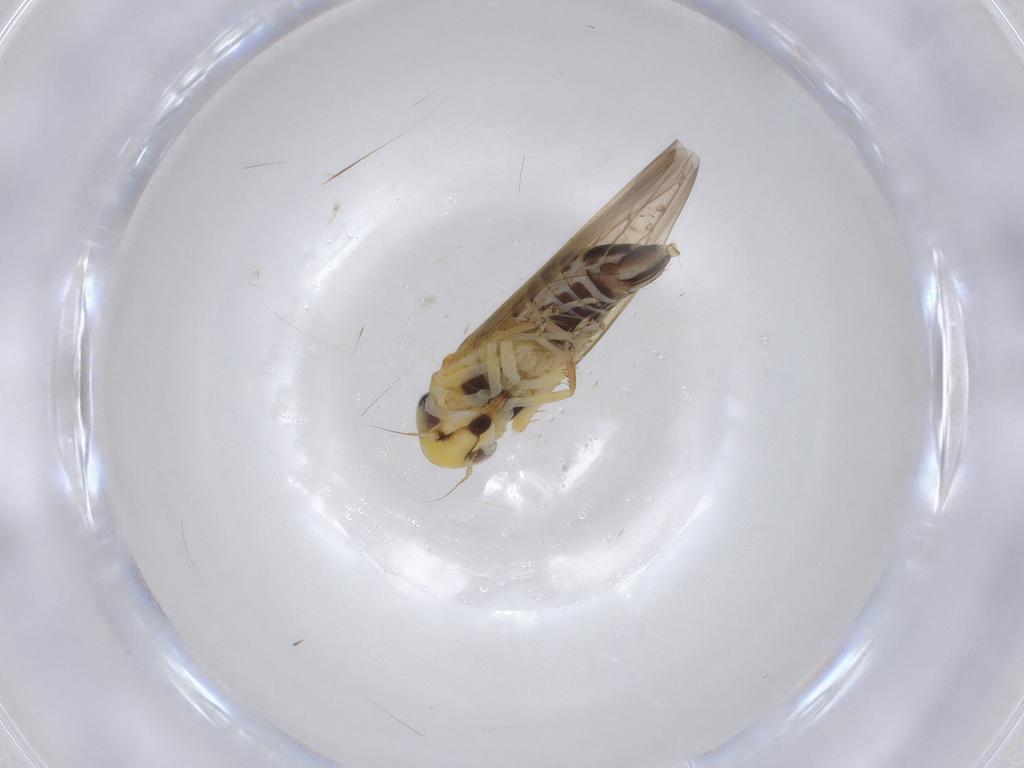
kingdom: Animalia
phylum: Arthropoda
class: Insecta
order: Hemiptera
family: Cicadellidae
